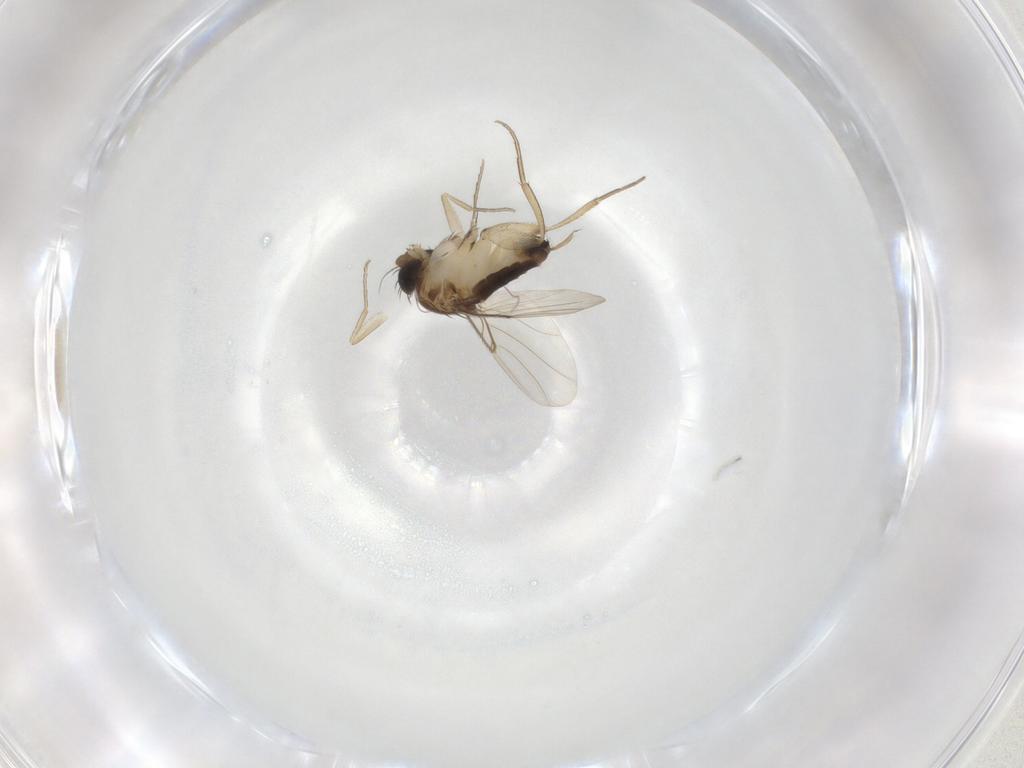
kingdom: Animalia
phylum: Arthropoda
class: Insecta
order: Diptera
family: Phoridae
